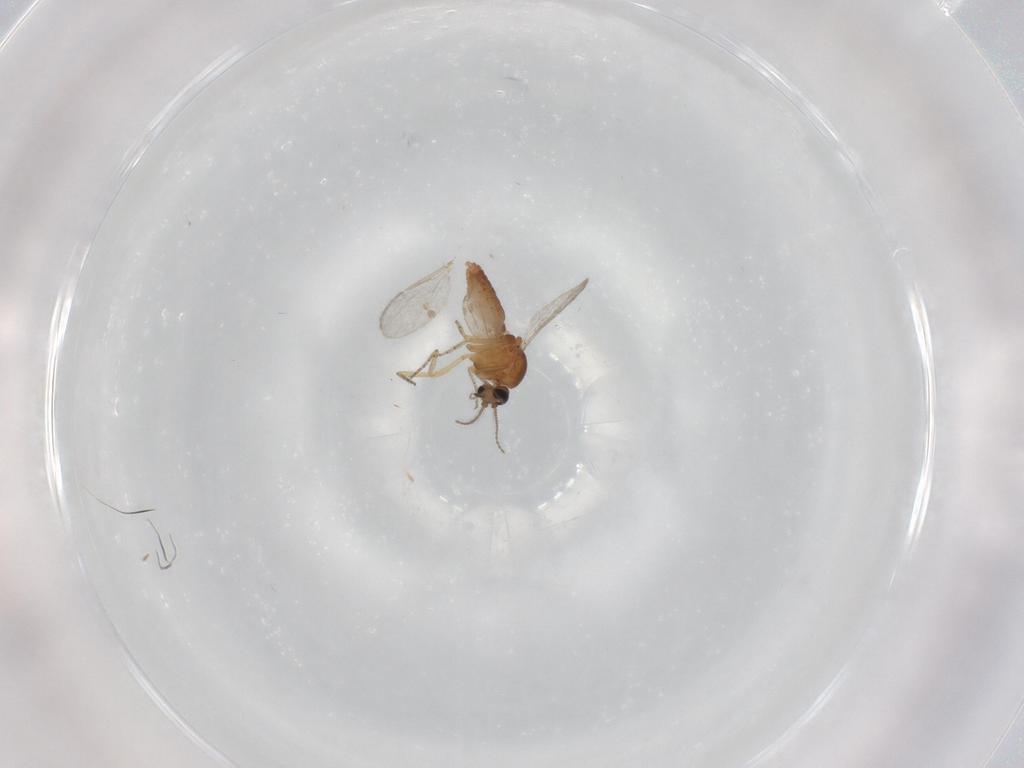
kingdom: Animalia
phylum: Arthropoda
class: Insecta
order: Diptera
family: Ceratopogonidae
